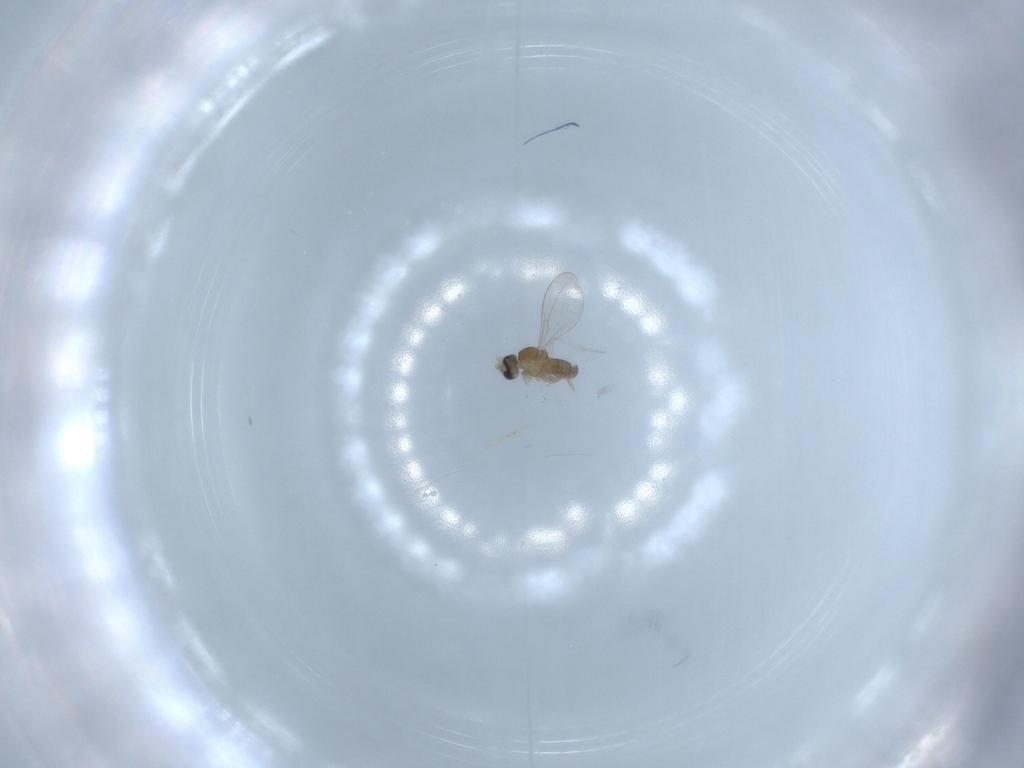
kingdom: Animalia
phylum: Arthropoda
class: Insecta
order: Diptera
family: Cecidomyiidae
